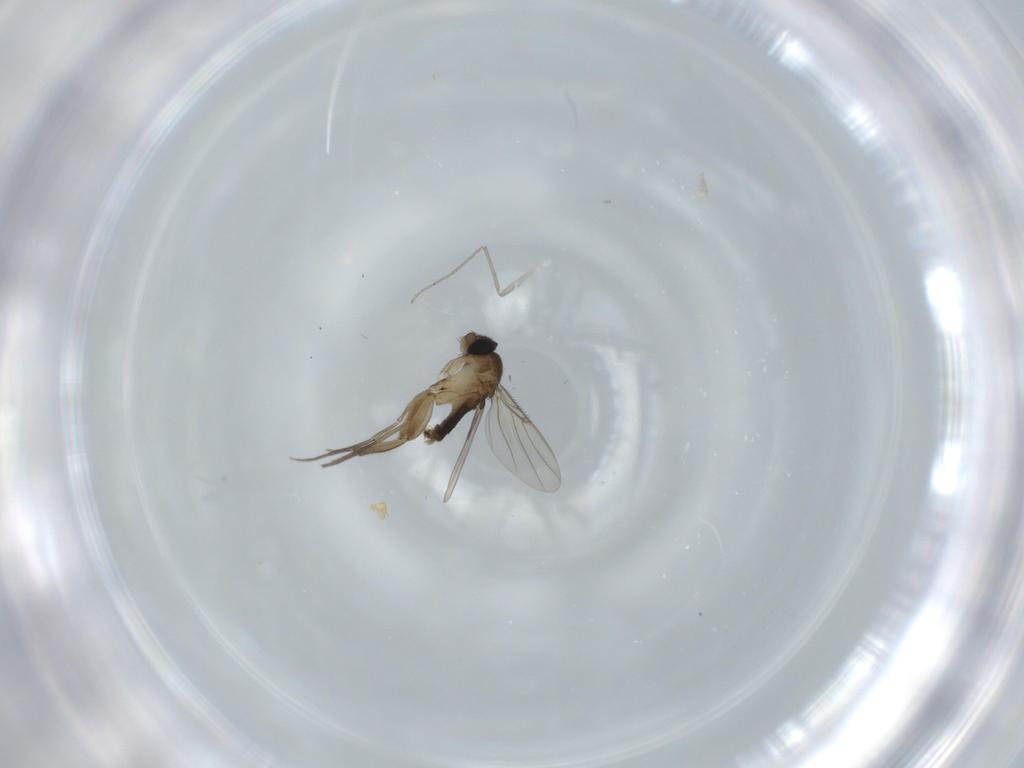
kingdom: Animalia
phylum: Arthropoda
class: Insecta
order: Diptera
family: Phoridae
